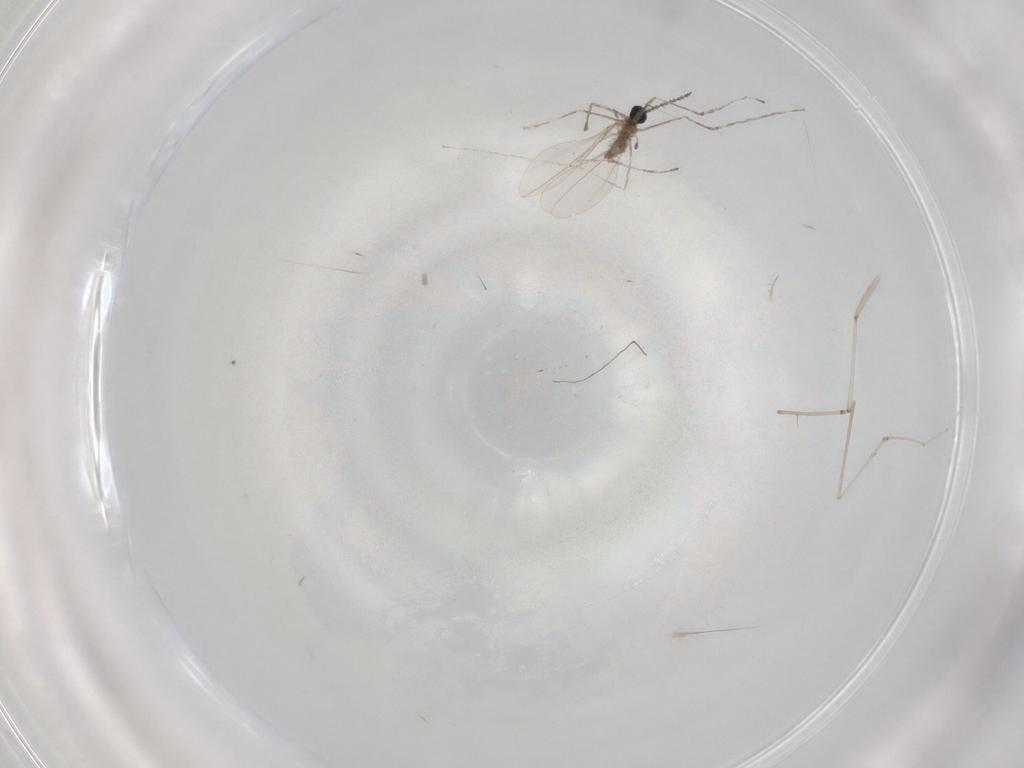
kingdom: Animalia
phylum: Arthropoda
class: Insecta
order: Diptera
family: Cecidomyiidae
